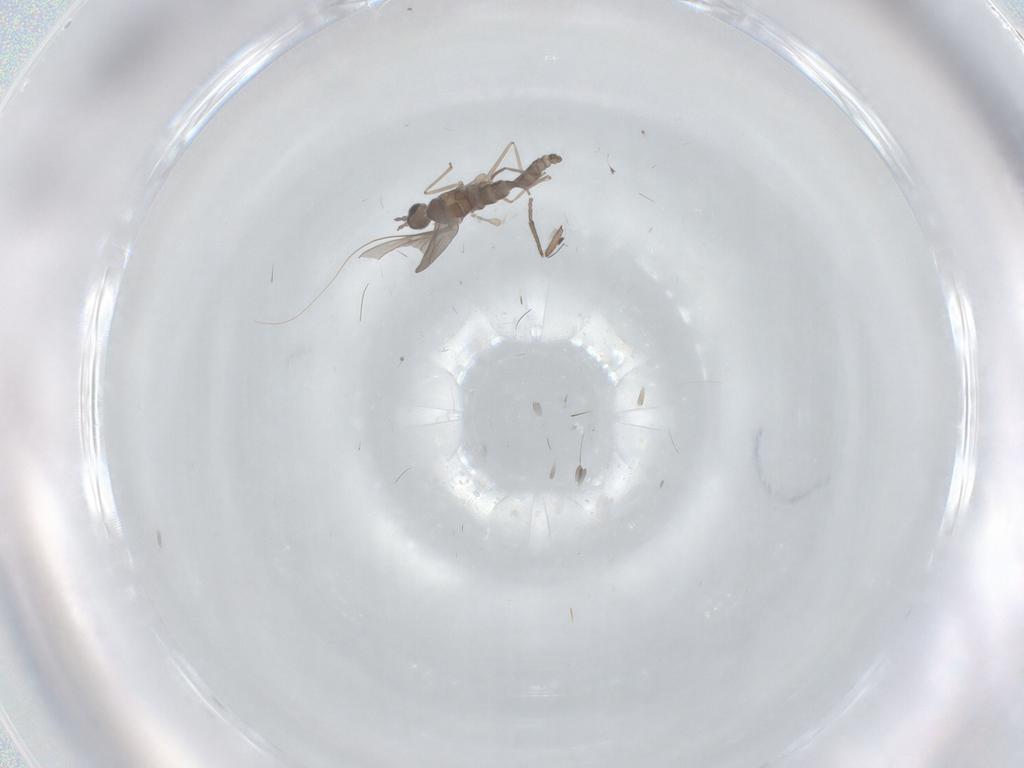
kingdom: Animalia
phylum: Arthropoda
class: Insecta
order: Diptera
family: Cecidomyiidae
